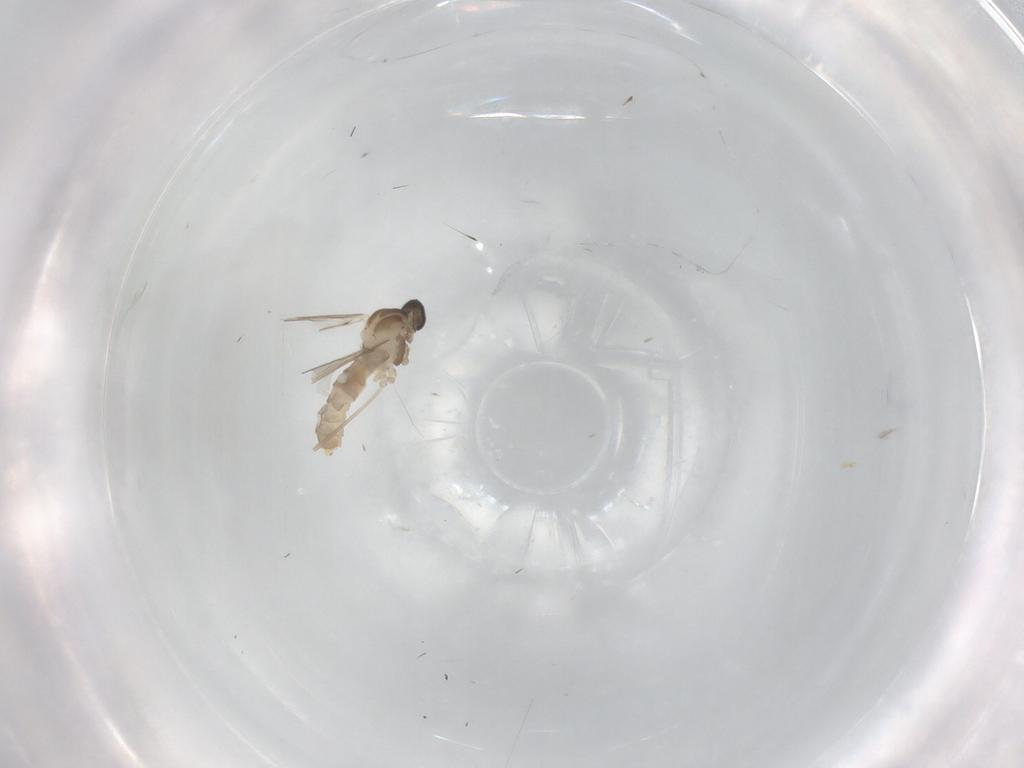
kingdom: Animalia
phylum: Arthropoda
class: Insecta
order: Diptera
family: Cecidomyiidae
